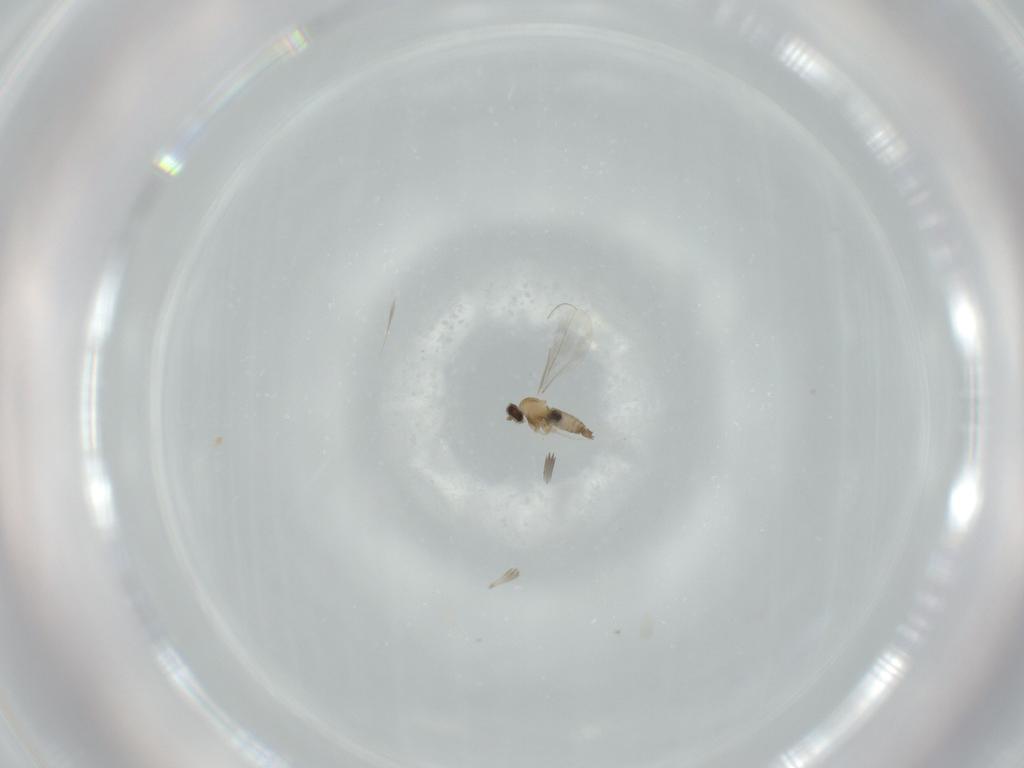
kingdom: Animalia
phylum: Arthropoda
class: Insecta
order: Diptera
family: Cecidomyiidae
